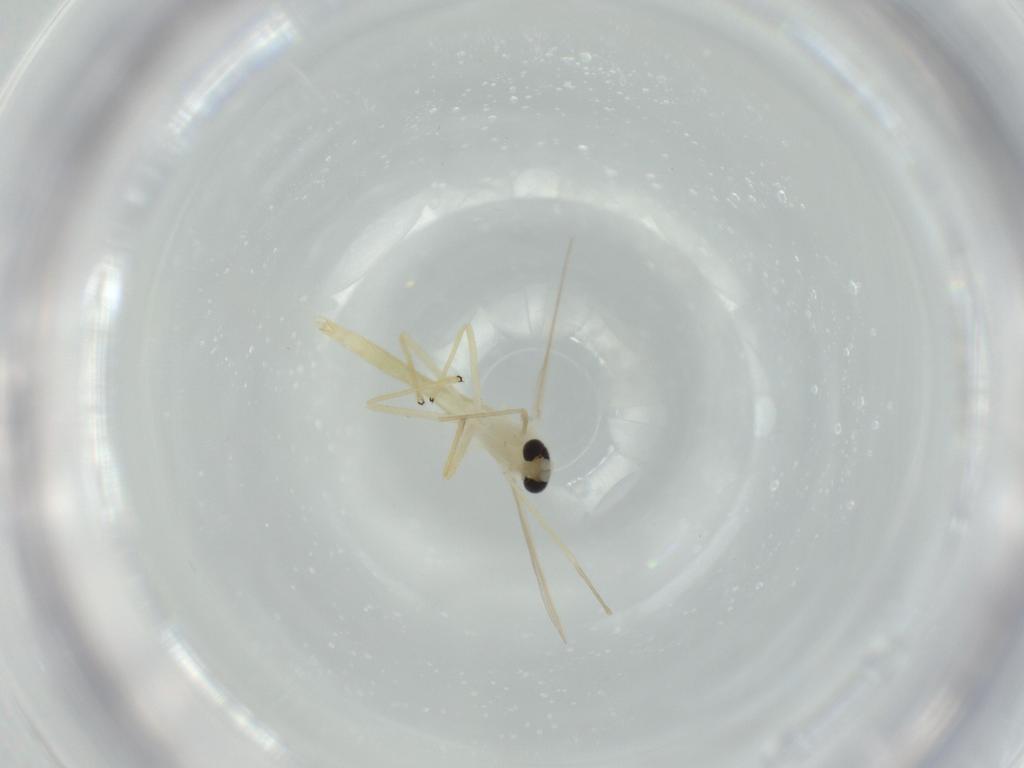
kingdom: Animalia
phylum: Arthropoda
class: Insecta
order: Diptera
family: Chironomidae
